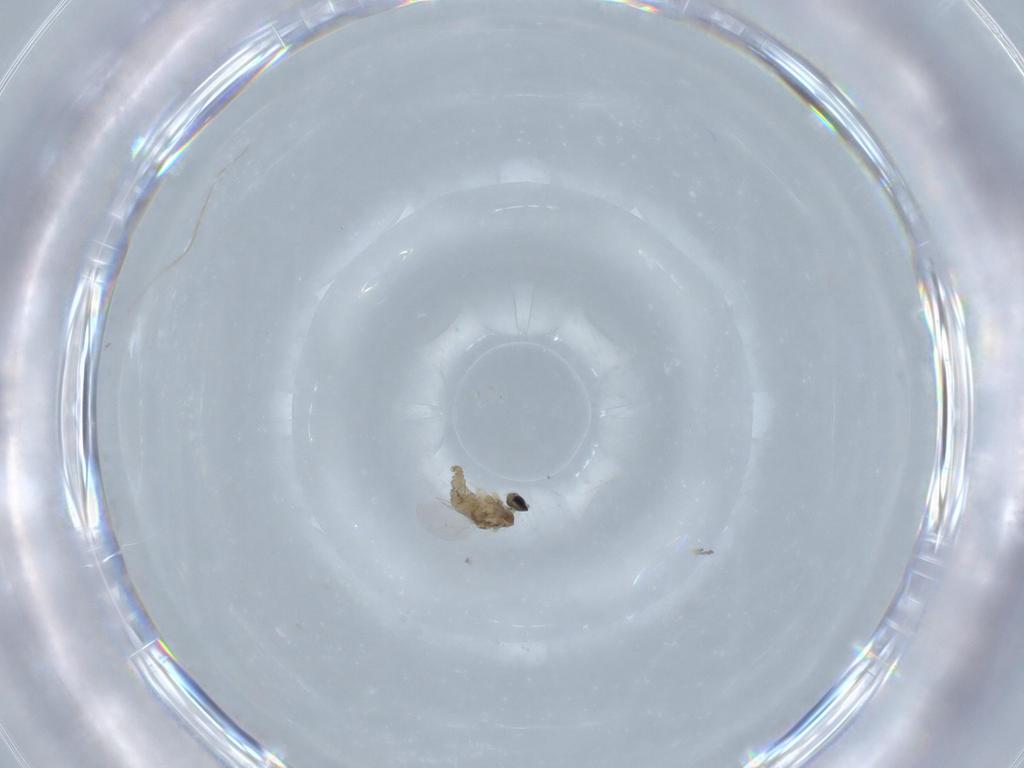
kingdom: Animalia
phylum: Arthropoda
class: Insecta
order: Diptera
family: Cecidomyiidae
